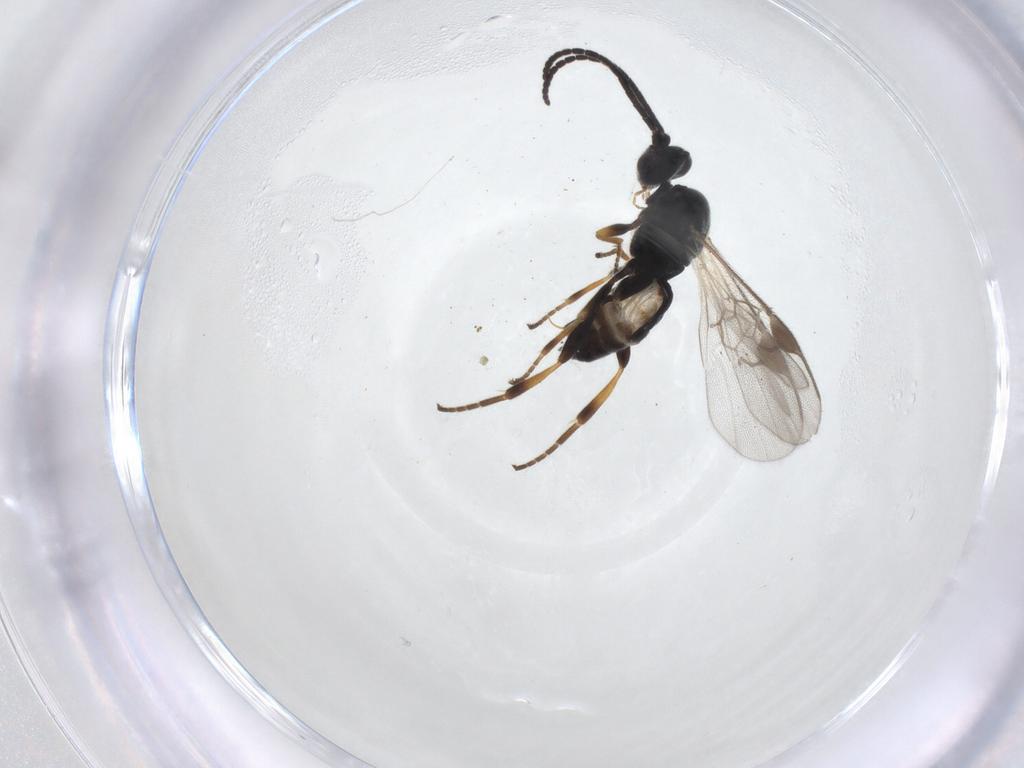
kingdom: Animalia
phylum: Arthropoda
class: Insecta
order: Hymenoptera
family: Braconidae
